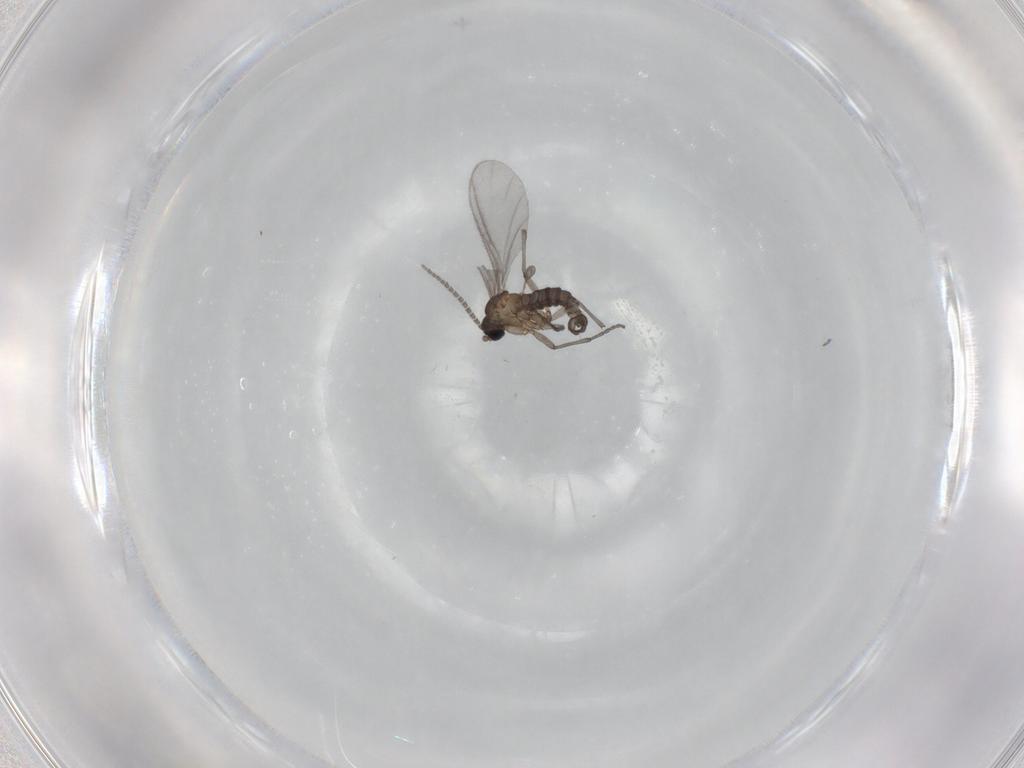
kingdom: Animalia
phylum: Arthropoda
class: Insecta
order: Diptera
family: Sciaridae
